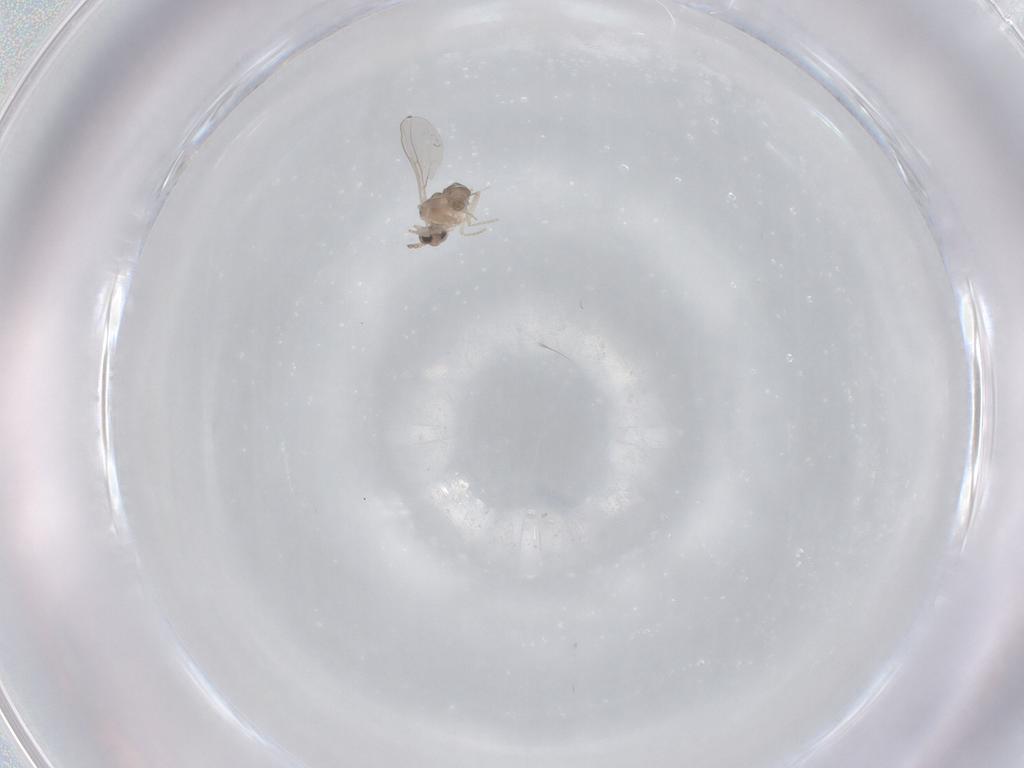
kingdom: Animalia
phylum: Arthropoda
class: Insecta
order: Diptera
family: Cecidomyiidae
